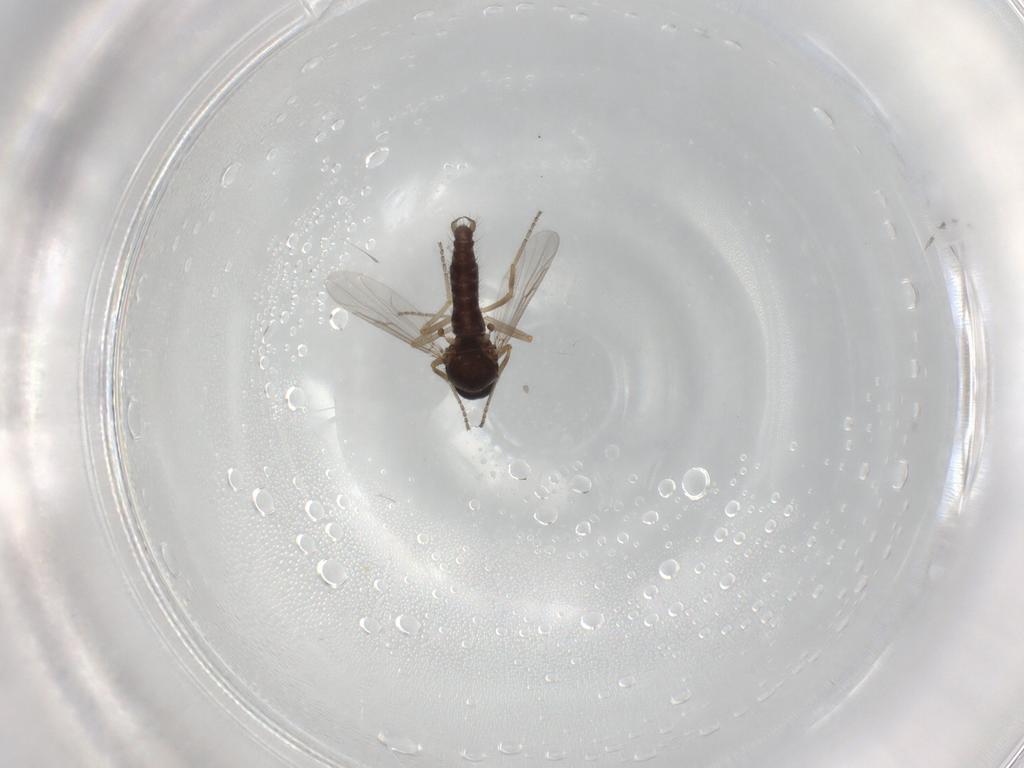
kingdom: Animalia
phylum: Arthropoda
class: Insecta
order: Diptera
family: Ceratopogonidae
